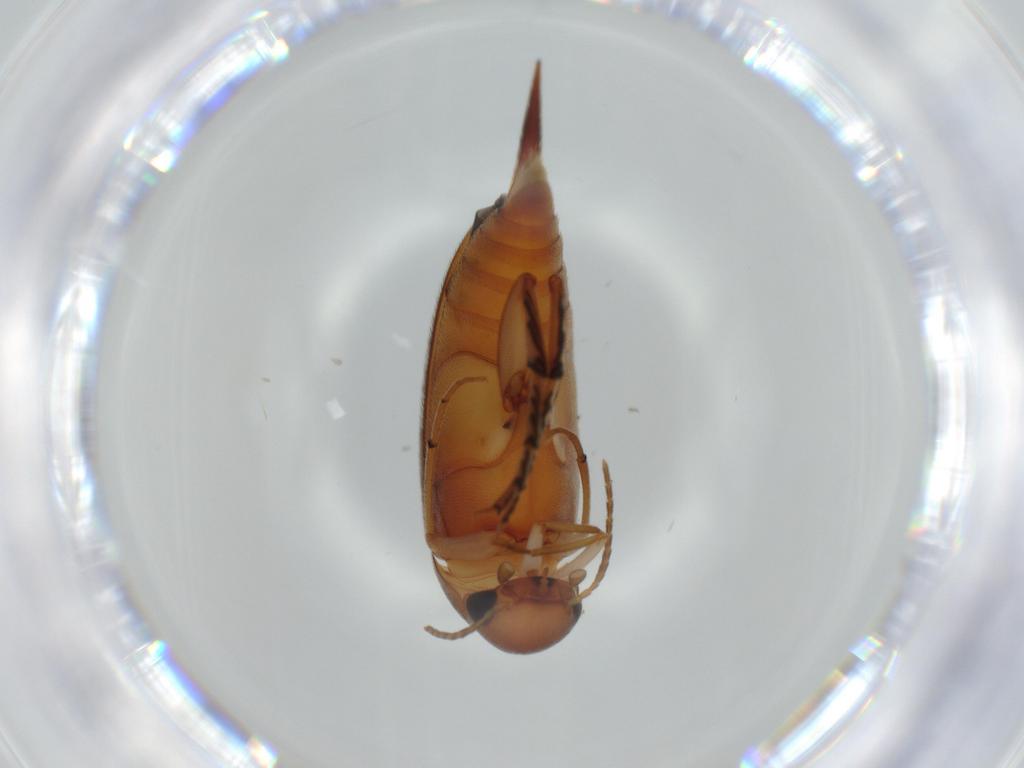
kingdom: Animalia
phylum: Arthropoda
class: Insecta
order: Coleoptera
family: Mordellidae
